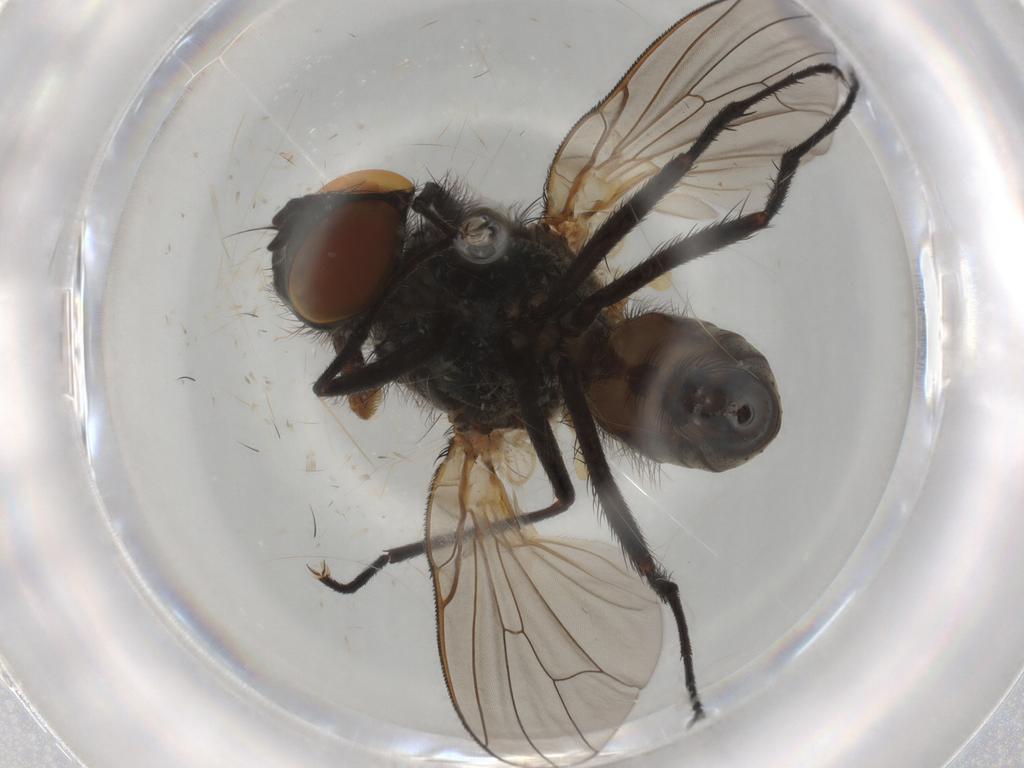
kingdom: Animalia
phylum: Arthropoda
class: Insecta
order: Diptera
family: Anthomyiidae
